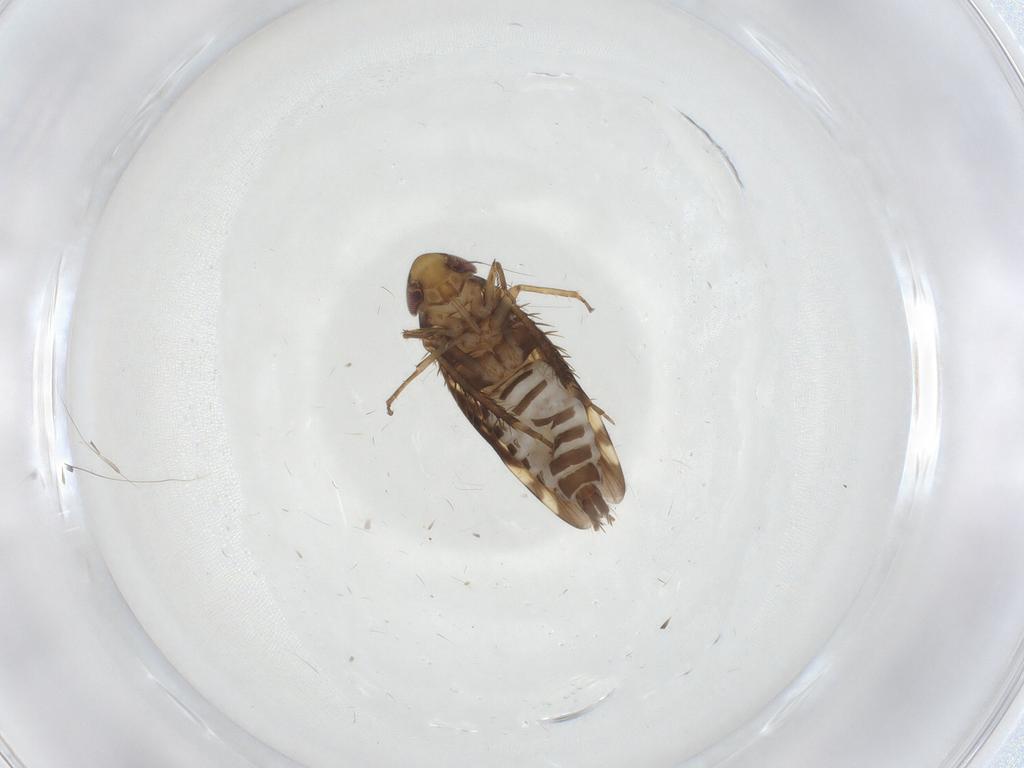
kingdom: Animalia
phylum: Arthropoda
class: Insecta
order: Hemiptera
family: Cicadellidae
